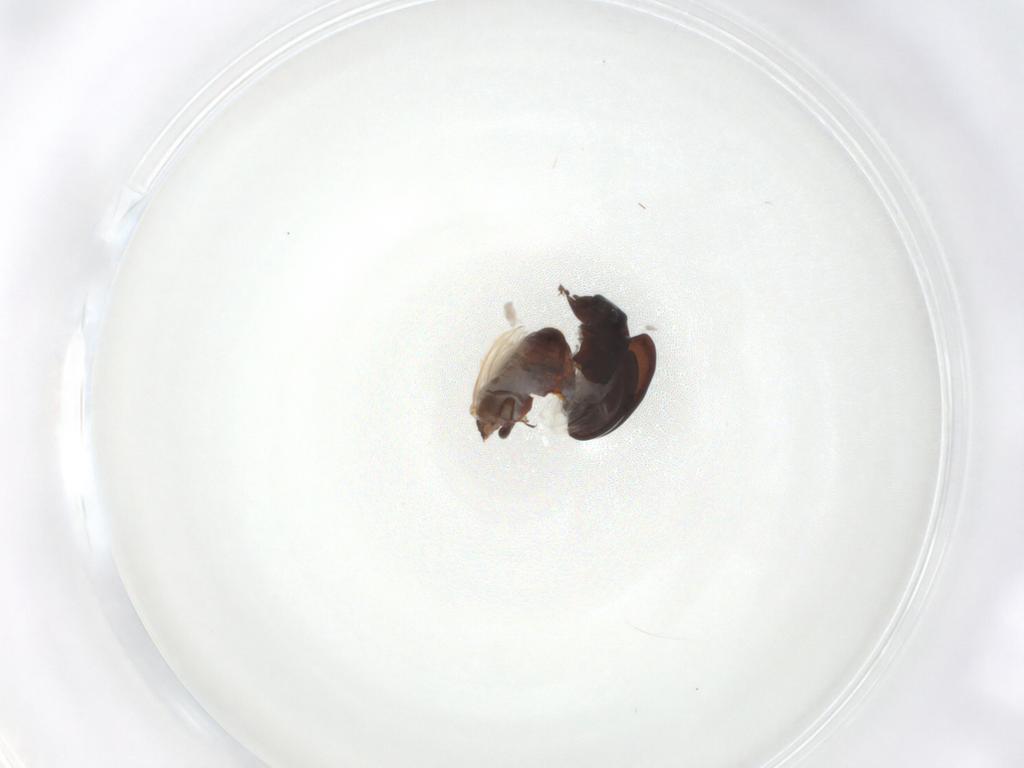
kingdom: Animalia
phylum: Arthropoda
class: Insecta
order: Coleoptera
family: Coccinellidae
